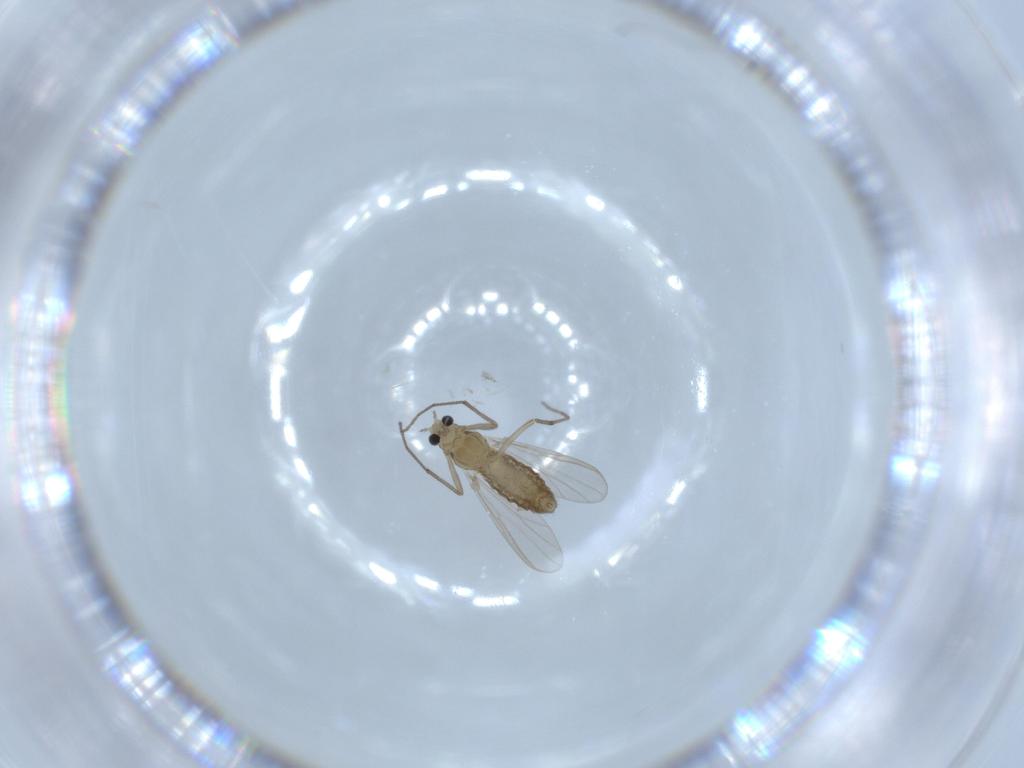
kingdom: Animalia
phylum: Arthropoda
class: Insecta
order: Diptera
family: Chironomidae
